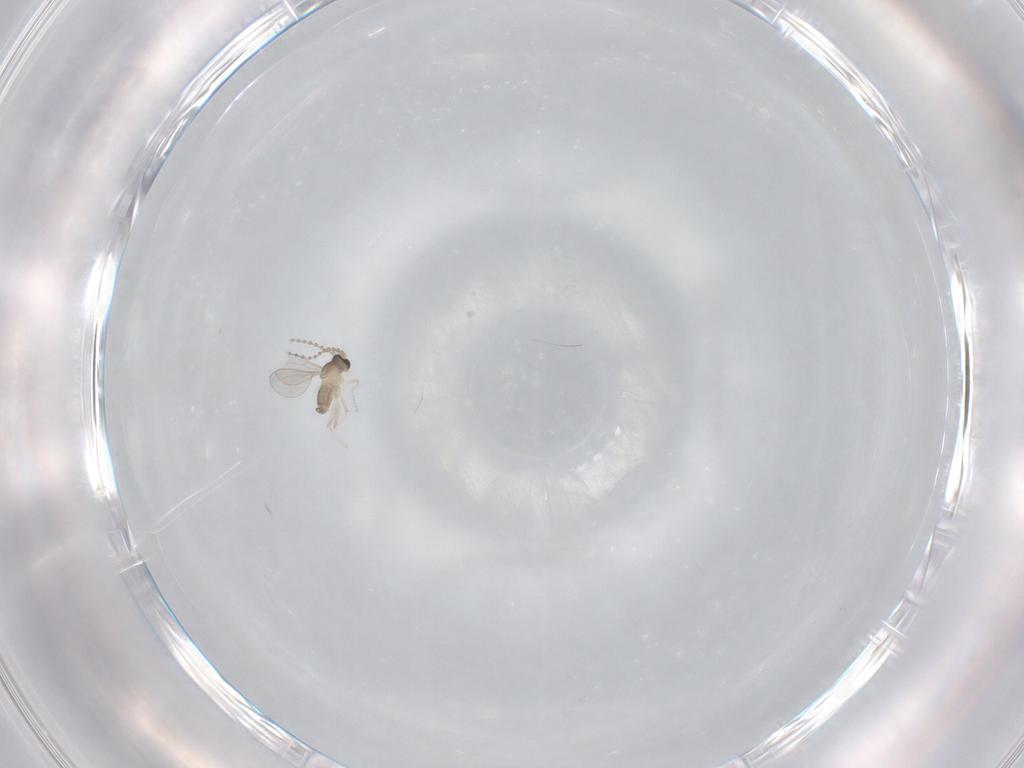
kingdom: Animalia
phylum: Arthropoda
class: Insecta
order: Diptera
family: Cecidomyiidae
